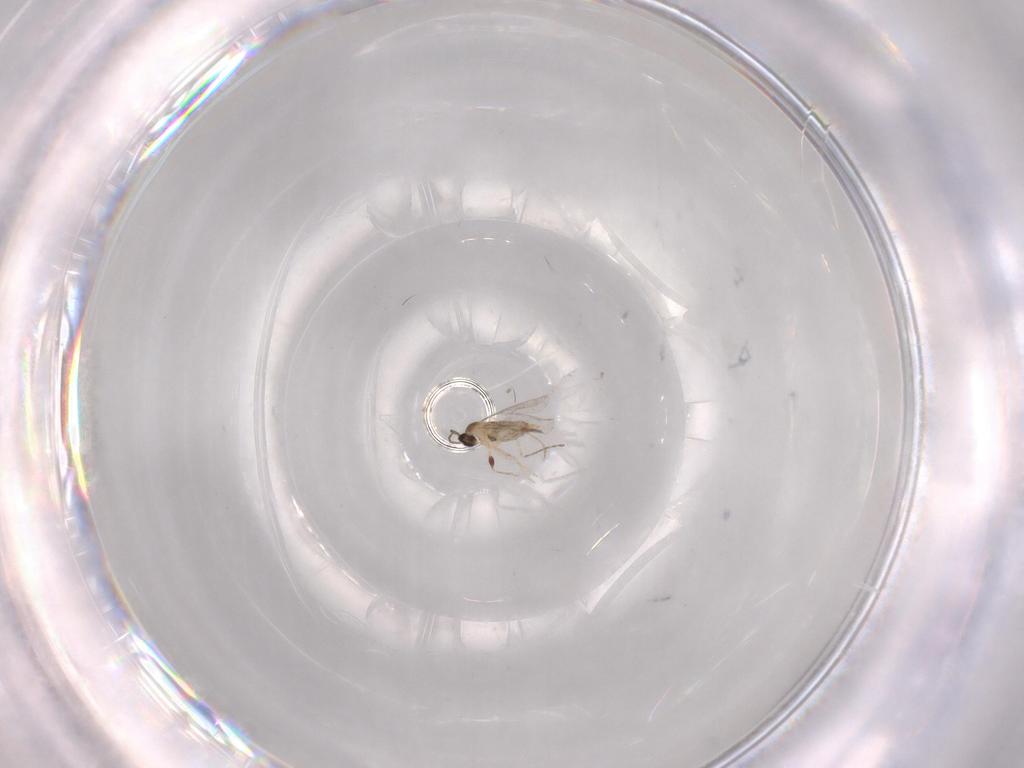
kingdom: Animalia
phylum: Arthropoda
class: Insecta
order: Diptera
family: Cecidomyiidae
